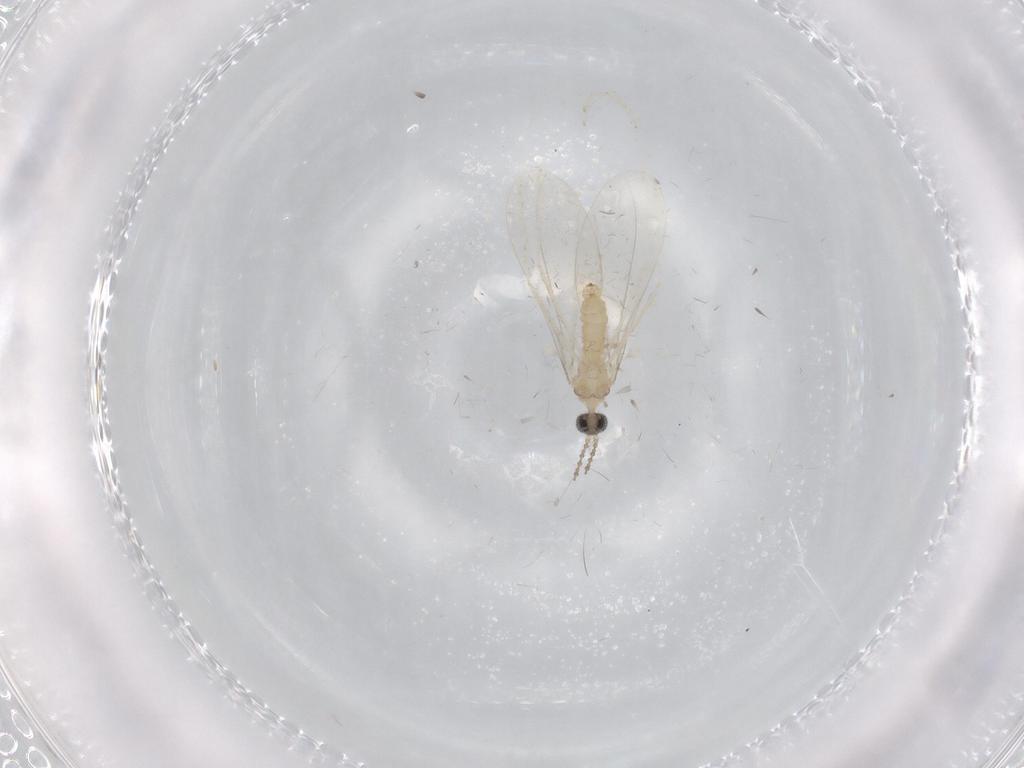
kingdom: Animalia
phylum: Arthropoda
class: Insecta
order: Diptera
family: Cecidomyiidae
